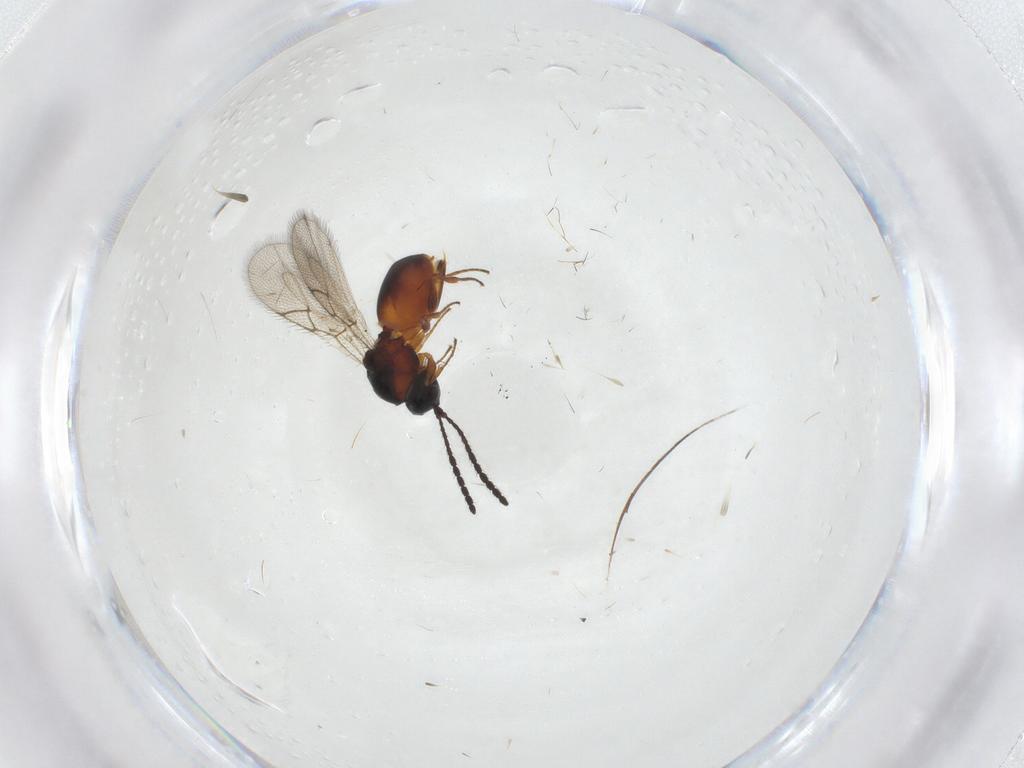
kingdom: Animalia
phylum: Arthropoda
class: Insecta
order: Hymenoptera
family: Figitidae
